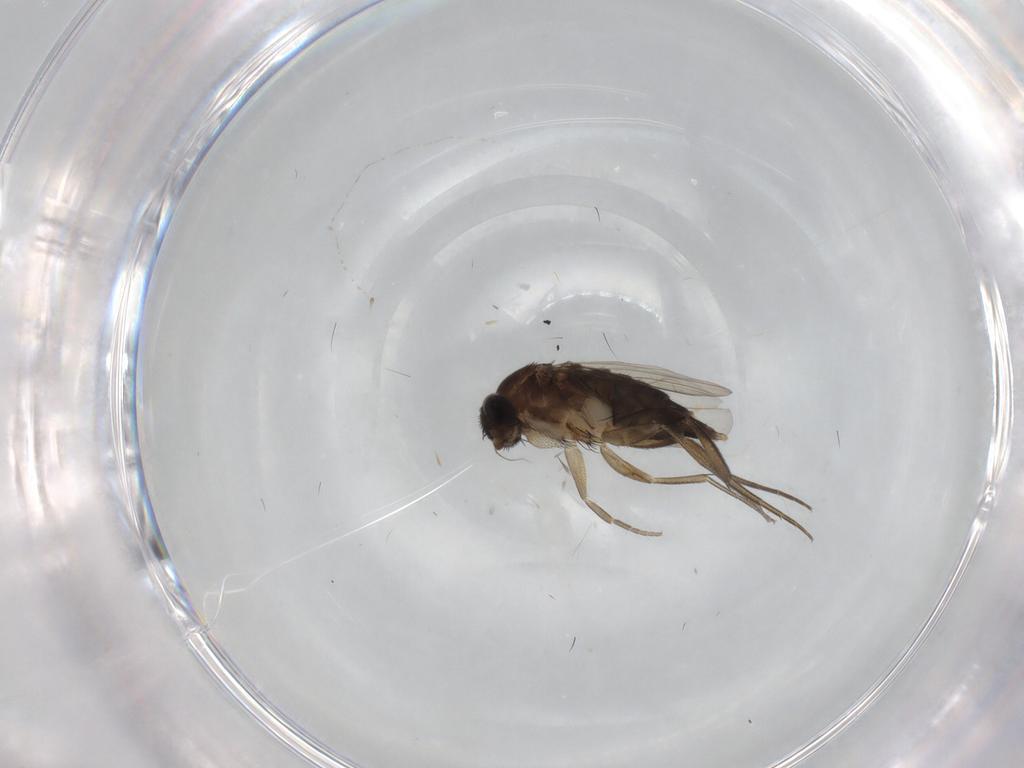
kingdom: Animalia
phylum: Arthropoda
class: Insecta
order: Diptera
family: Phoridae
